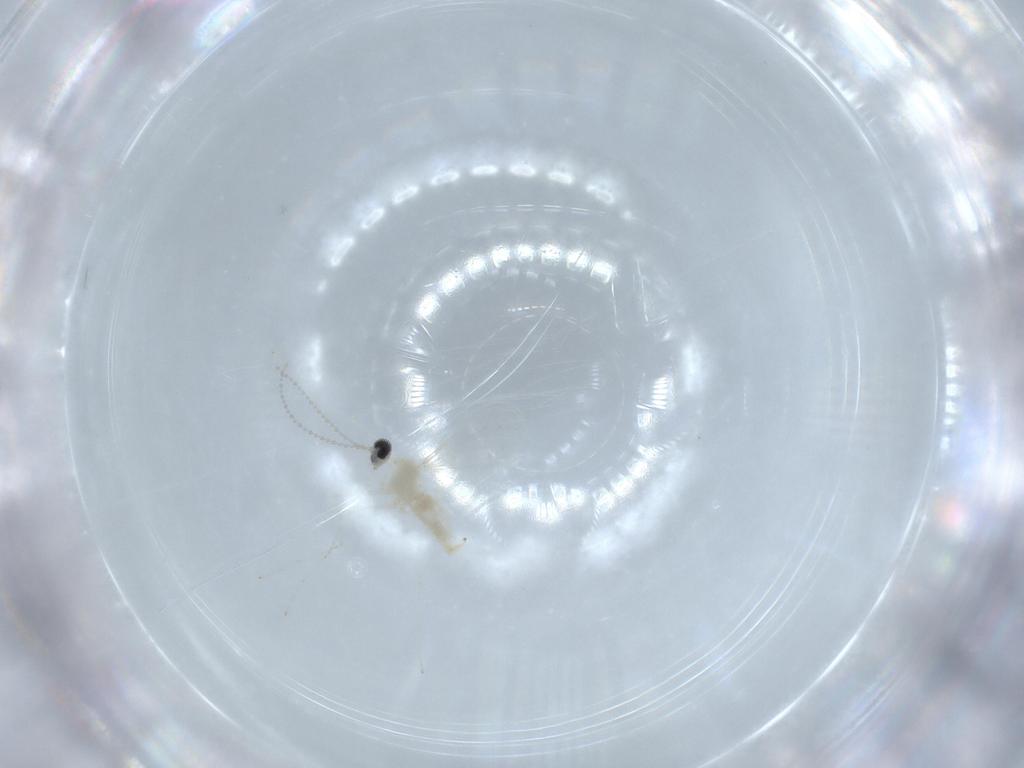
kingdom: Animalia
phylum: Arthropoda
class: Insecta
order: Diptera
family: Cecidomyiidae
